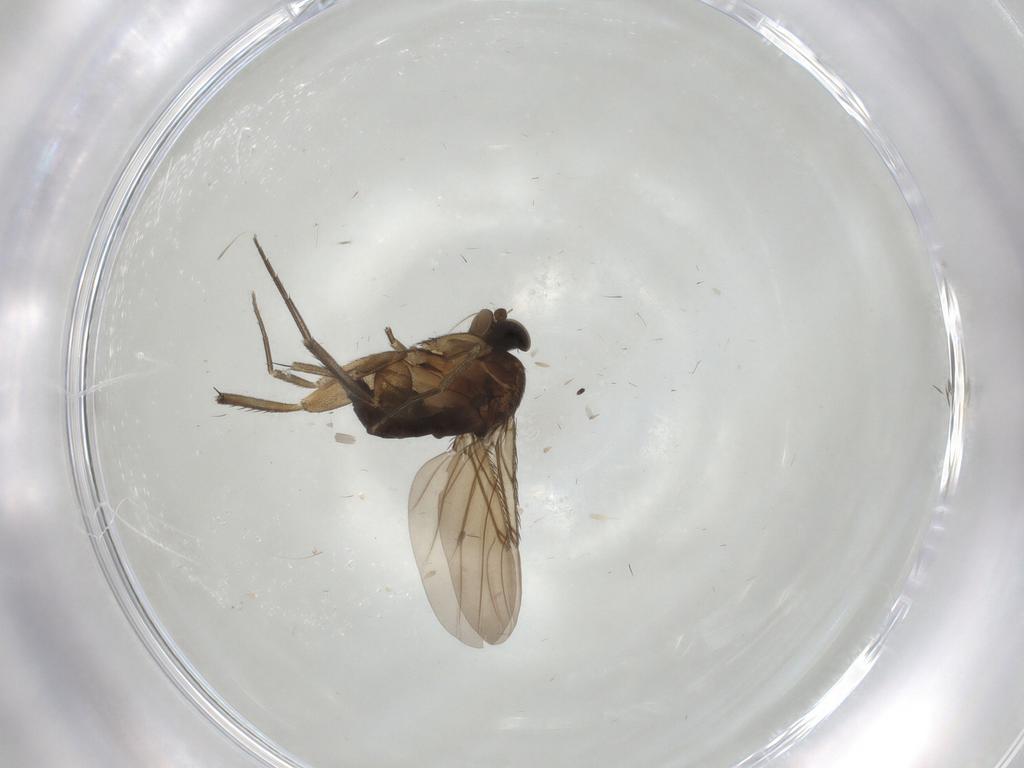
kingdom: Animalia
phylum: Arthropoda
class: Insecta
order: Diptera
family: Phoridae
